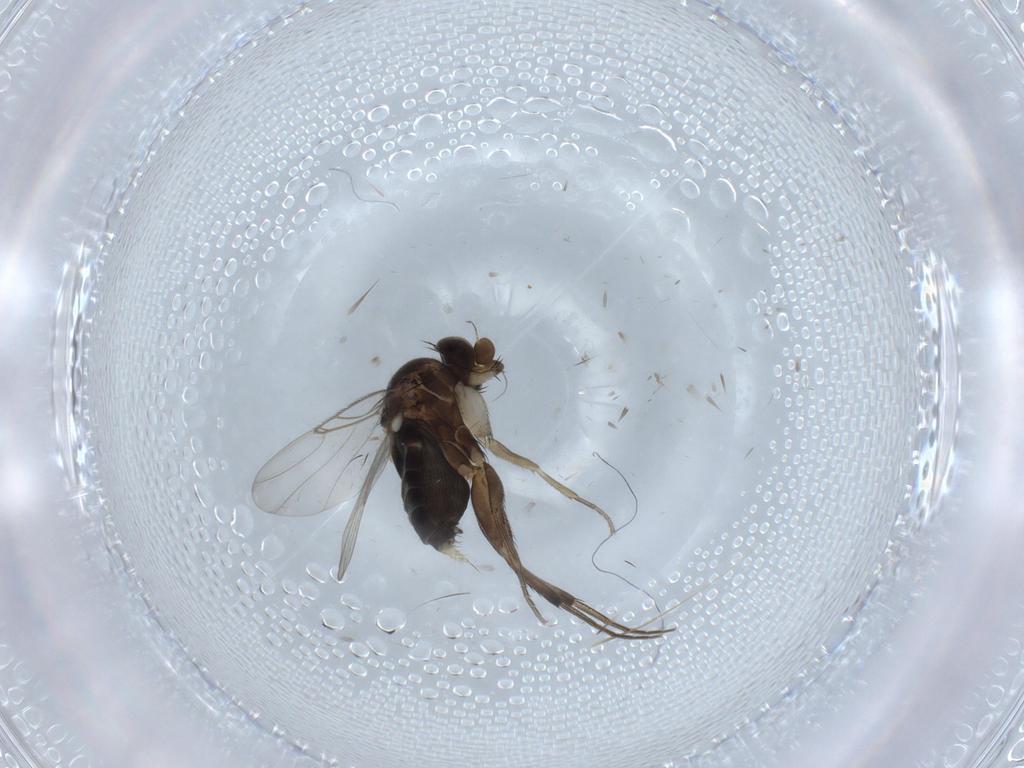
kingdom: Animalia
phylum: Arthropoda
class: Insecta
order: Diptera
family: Phoridae
